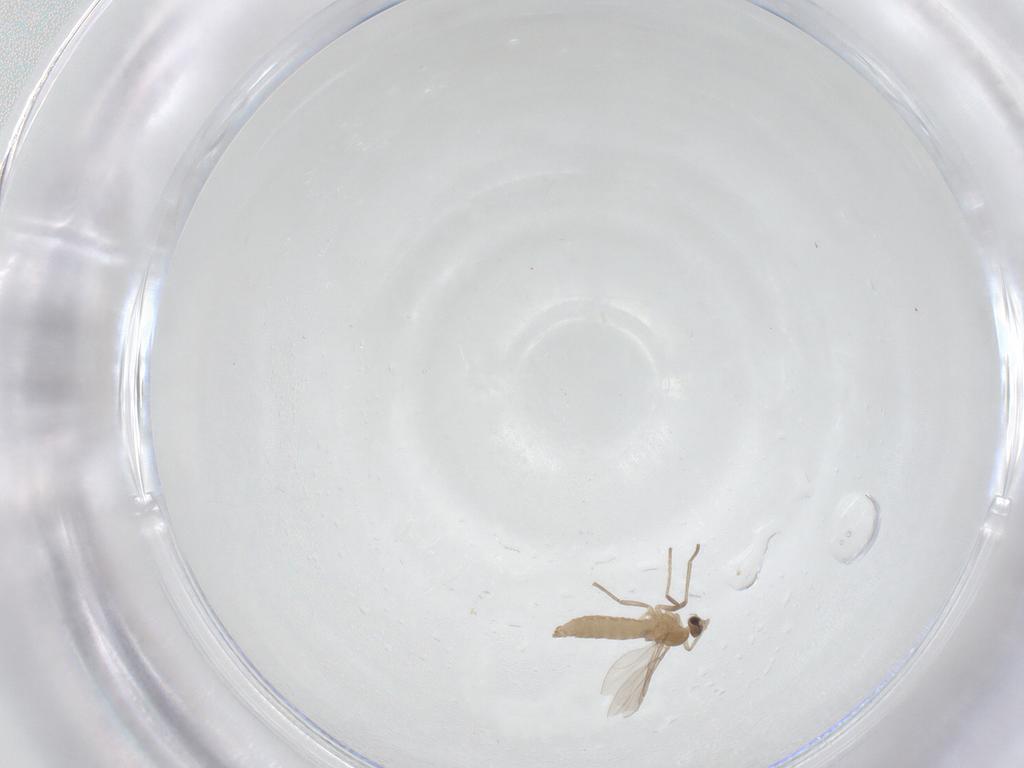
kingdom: Animalia
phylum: Arthropoda
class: Insecta
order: Diptera
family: Cecidomyiidae
